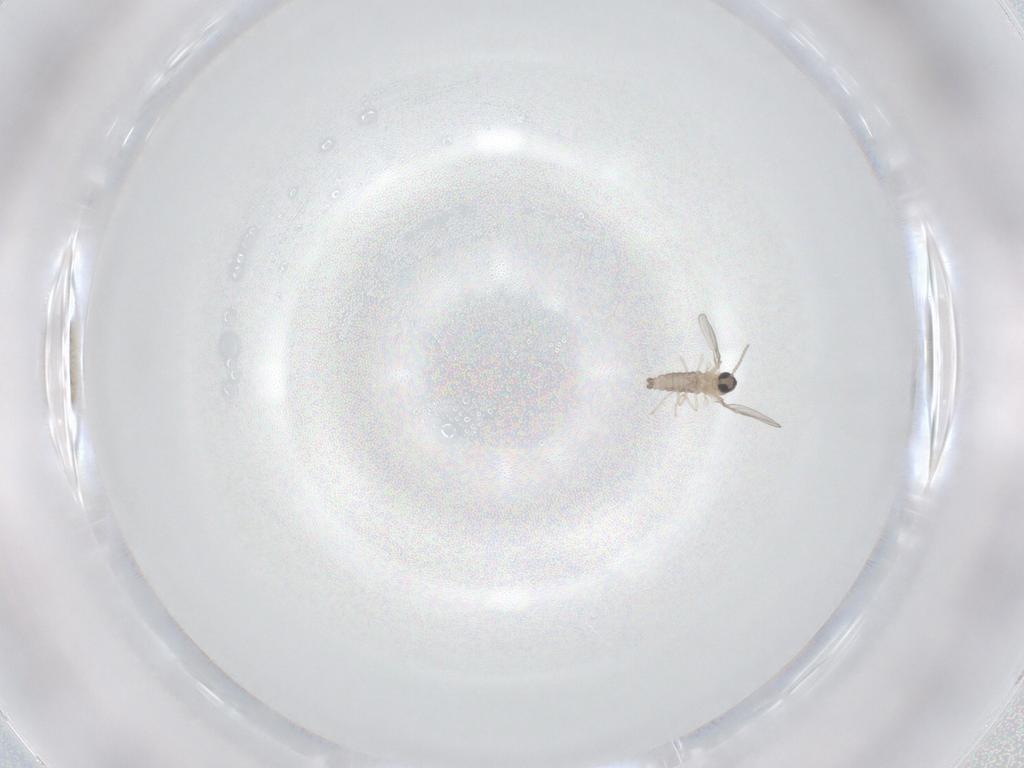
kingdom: Animalia
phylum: Arthropoda
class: Insecta
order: Diptera
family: Cecidomyiidae
